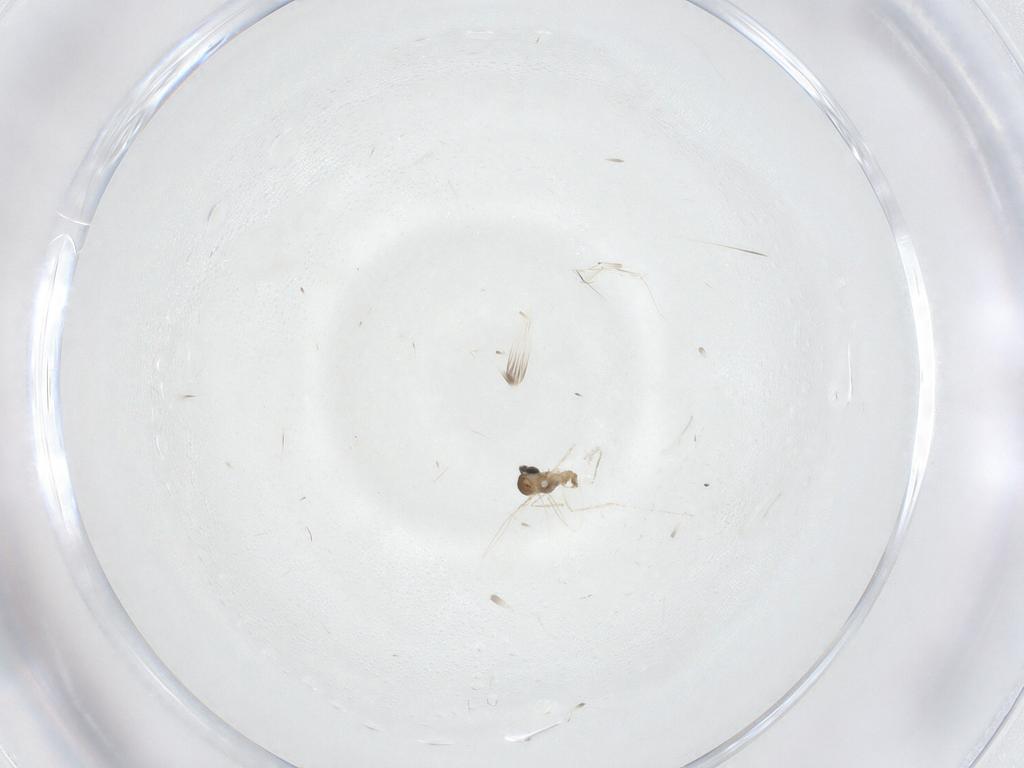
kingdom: Animalia
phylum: Arthropoda
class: Insecta
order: Diptera
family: Cecidomyiidae
